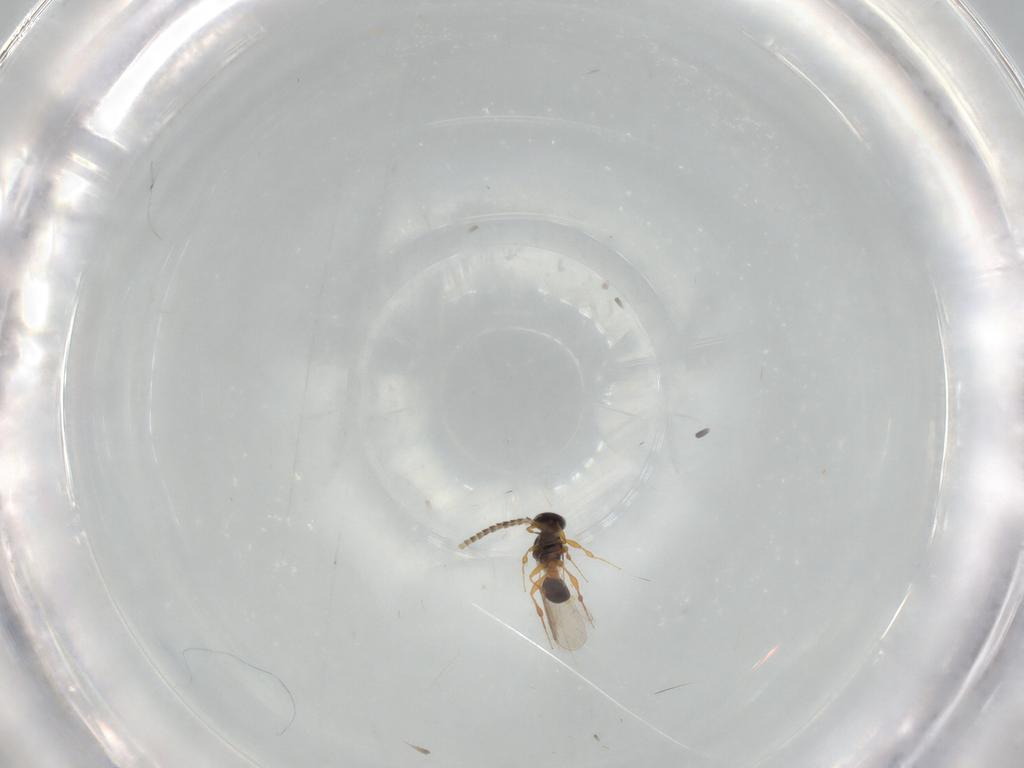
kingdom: Animalia
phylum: Arthropoda
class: Insecta
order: Hymenoptera
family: Platygastridae
